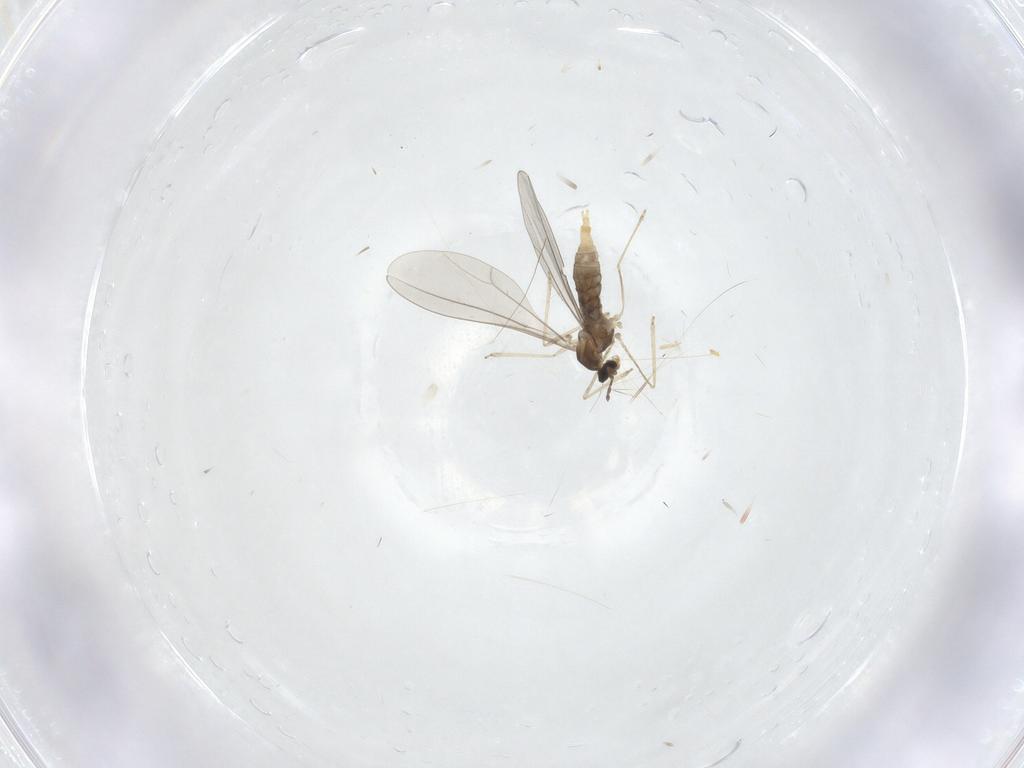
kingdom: Animalia
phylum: Arthropoda
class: Insecta
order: Diptera
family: Cecidomyiidae
